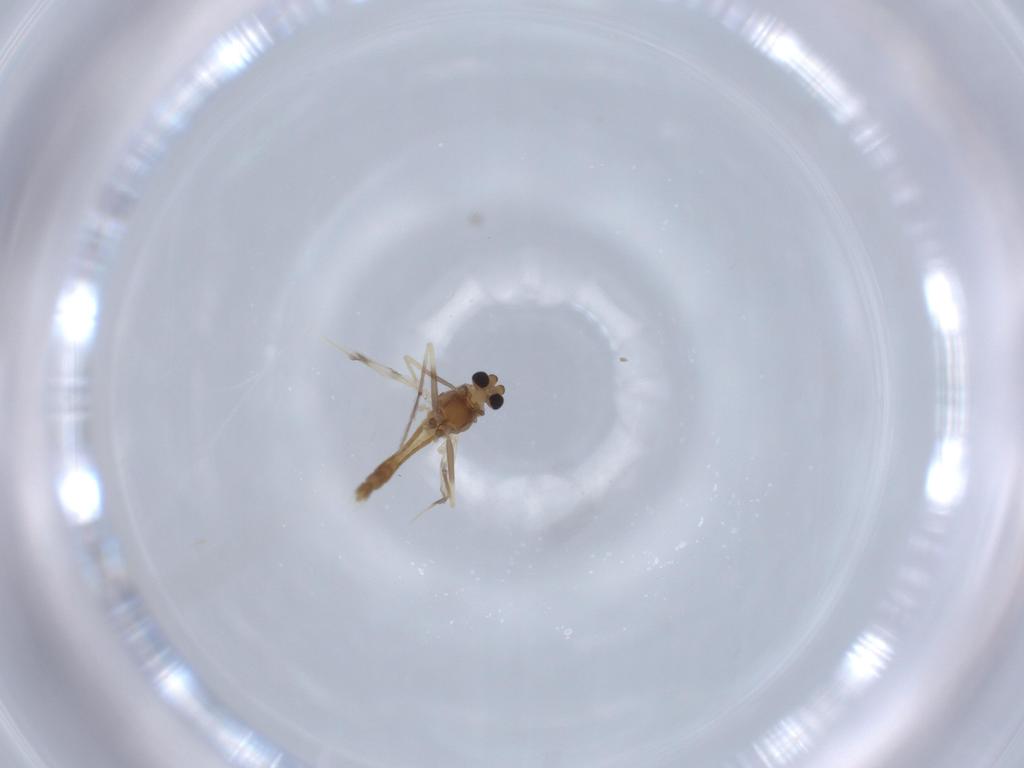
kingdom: Animalia
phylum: Arthropoda
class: Insecta
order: Diptera
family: Chironomidae
